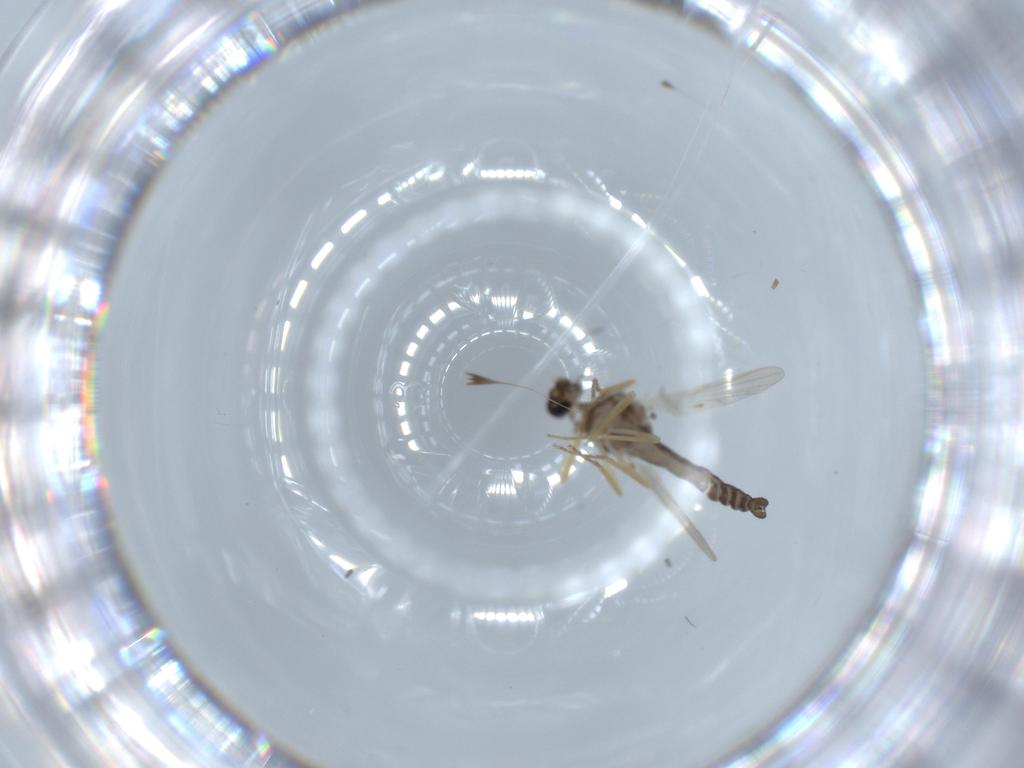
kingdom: Animalia
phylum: Arthropoda
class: Insecta
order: Diptera
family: Ceratopogonidae
